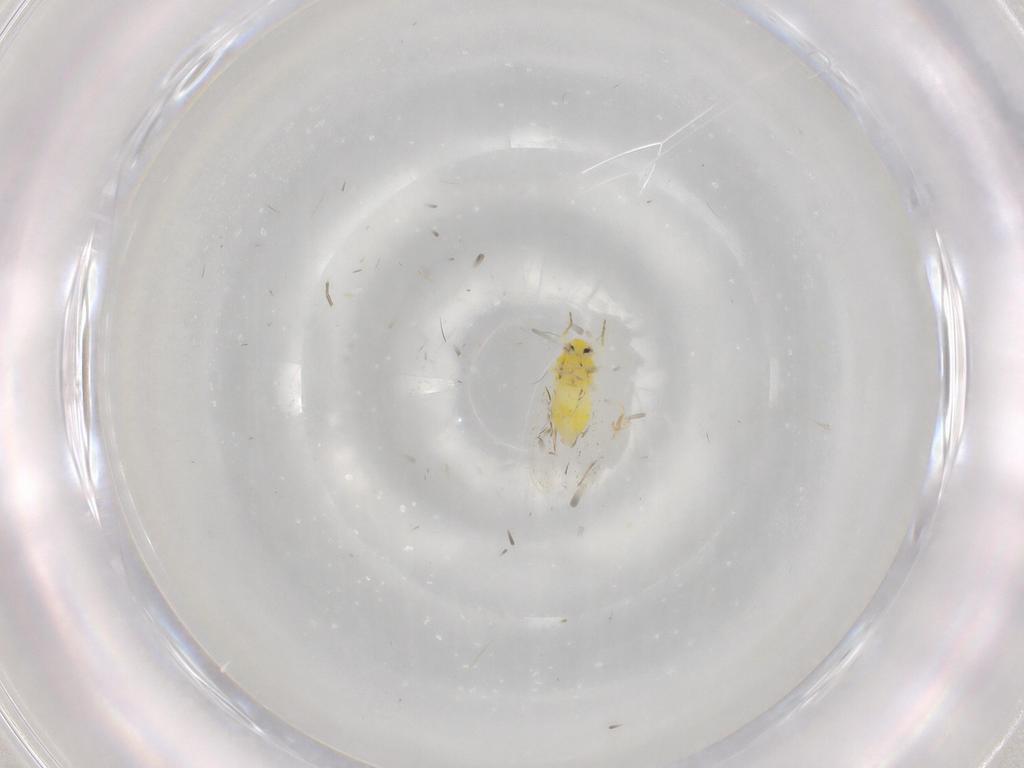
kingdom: Animalia
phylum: Arthropoda
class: Insecta
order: Hemiptera
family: Aleyrodidae
